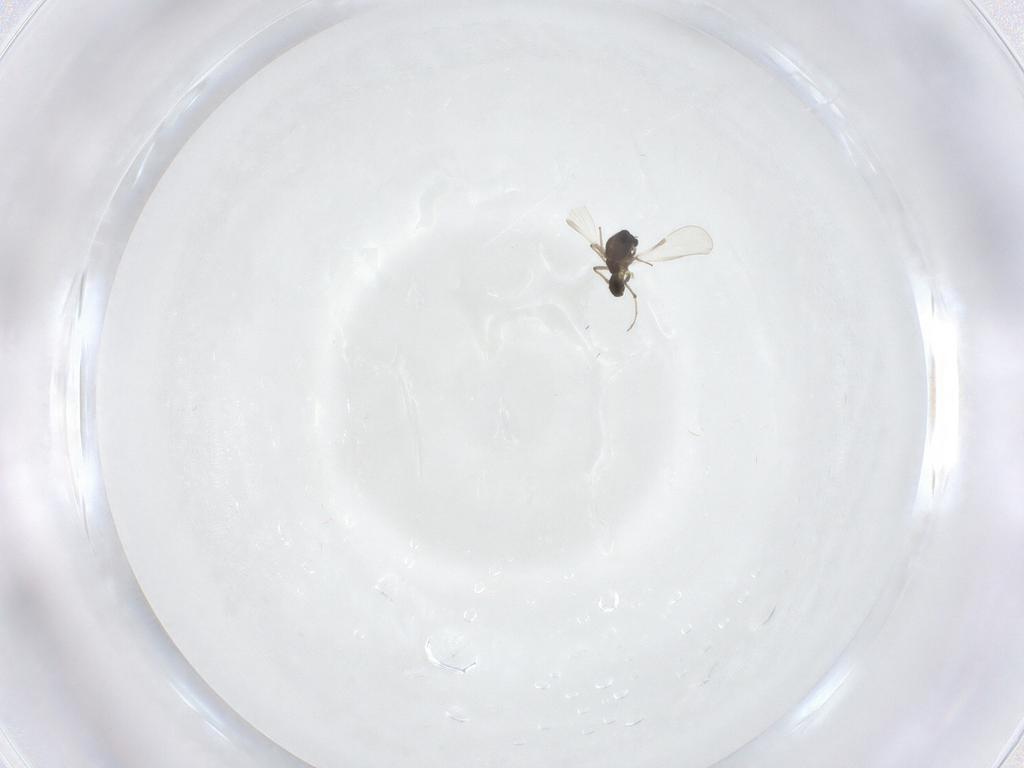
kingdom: Animalia
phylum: Arthropoda
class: Insecta
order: Diptera
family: Chironomidae
